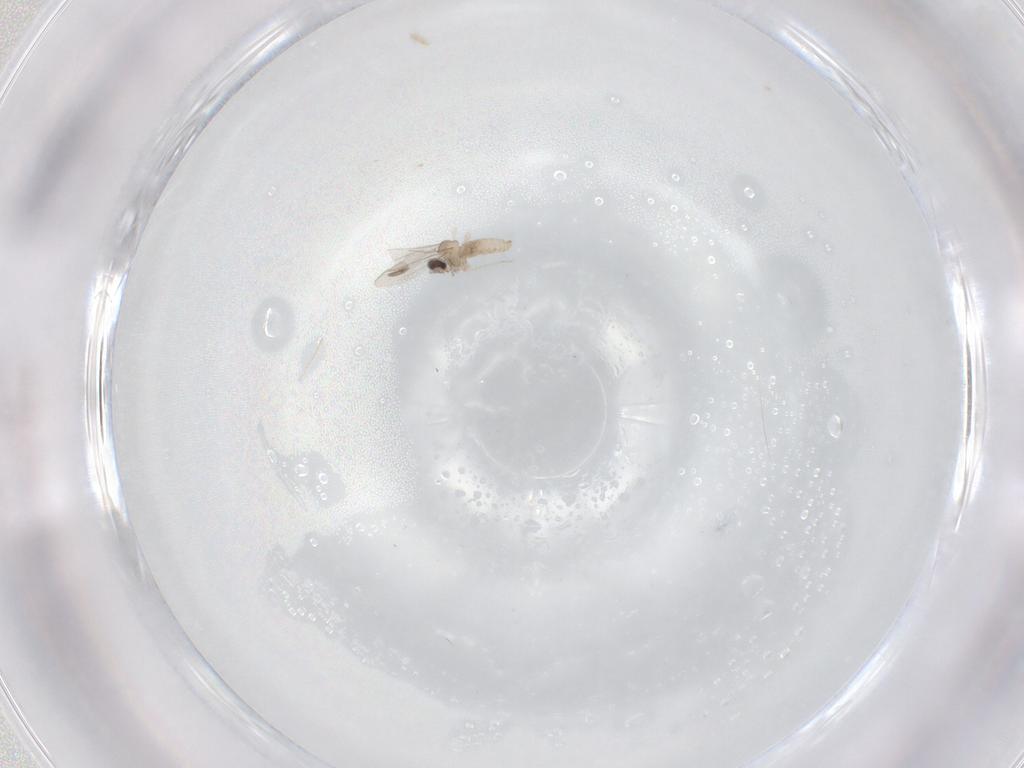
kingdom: Animalia
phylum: Arthropoda
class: Insecta
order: Diptera
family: Cecidomyiidae
